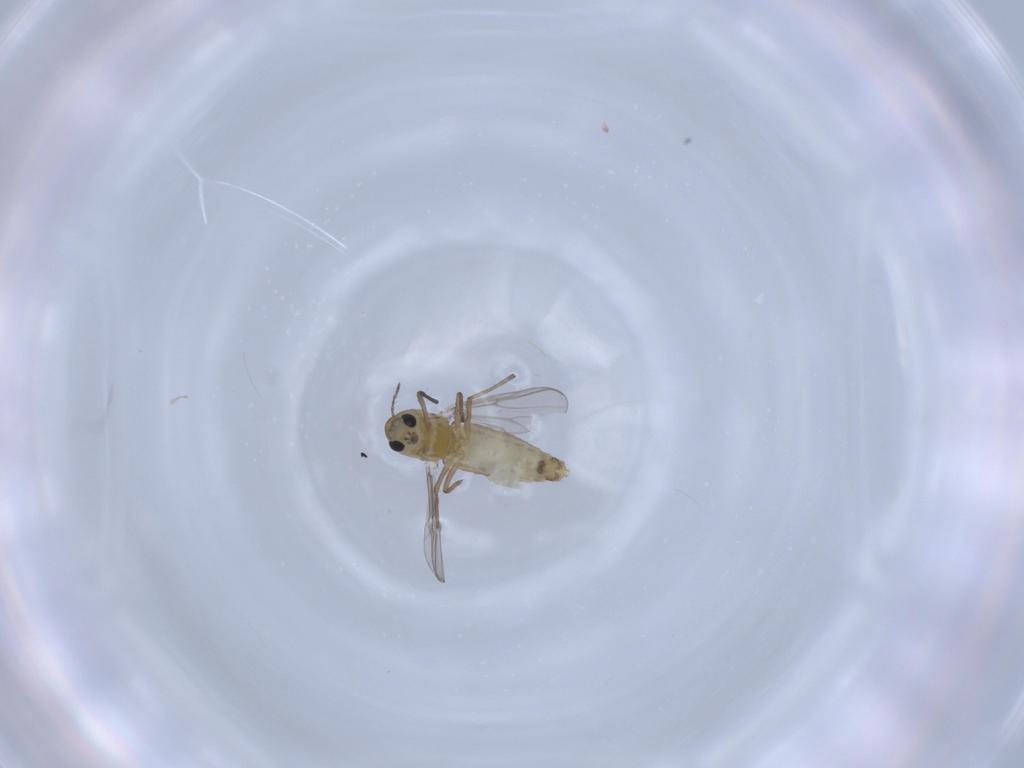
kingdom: Animalia
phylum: Arthropoda
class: Insecta
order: Diptera
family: Chironomidae
